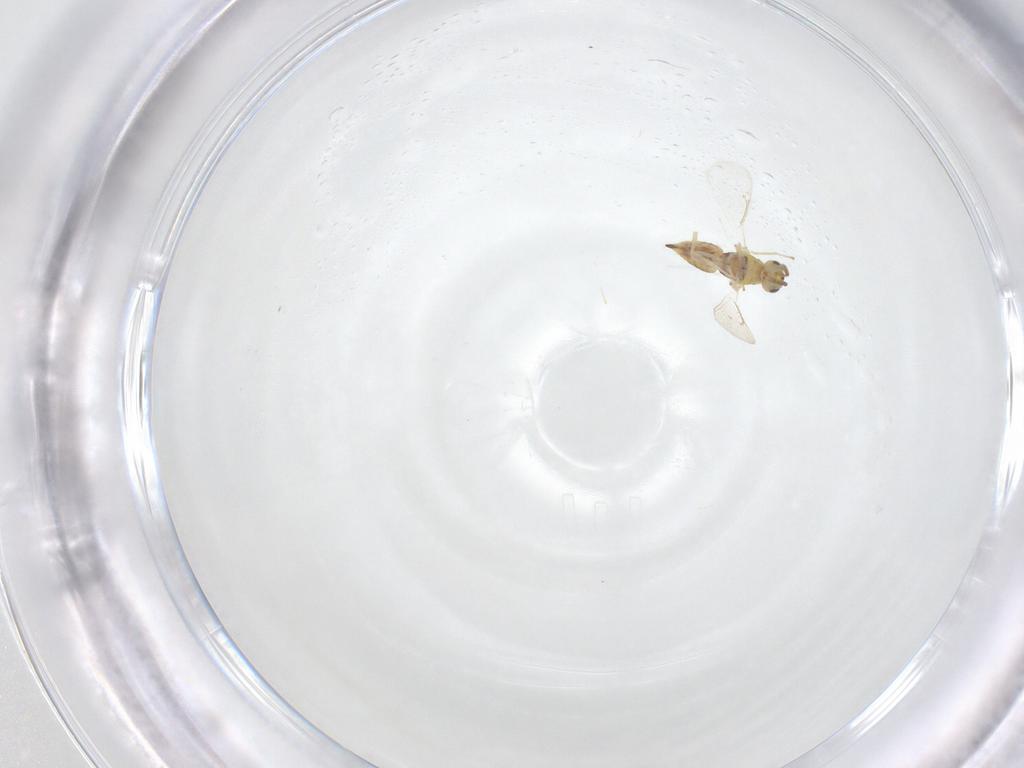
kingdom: Animalia
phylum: Arthropoda
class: Insecta
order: Hymenoptera
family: Eulophidae
